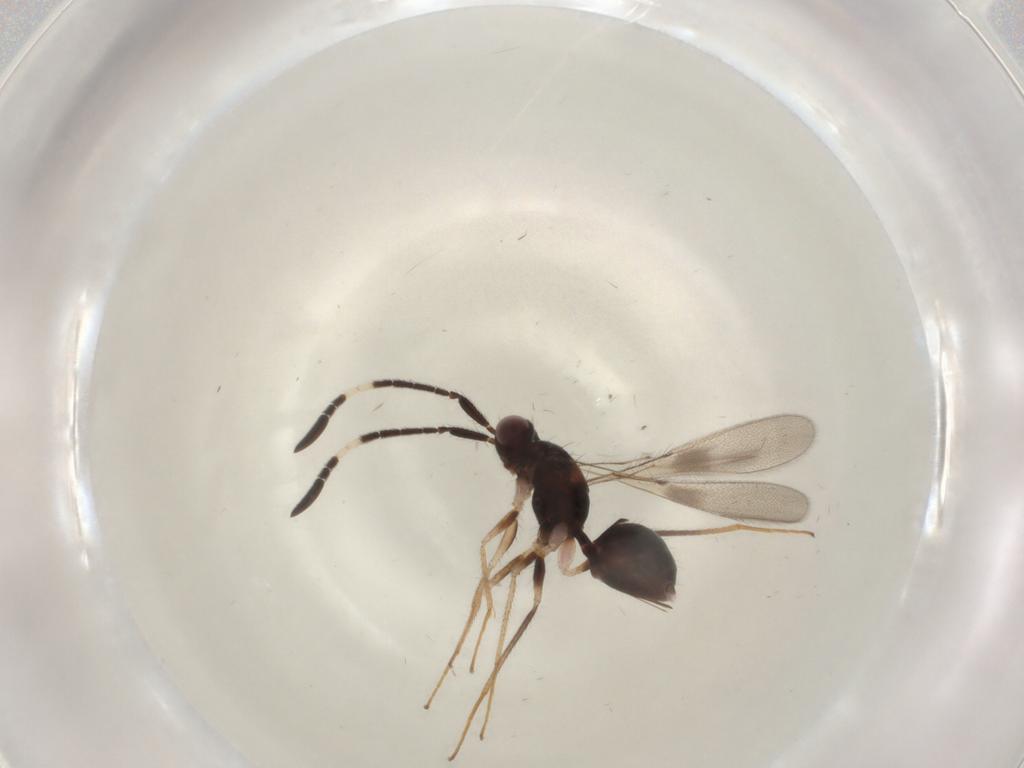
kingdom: Animalia
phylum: Arthropoda
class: Insecta
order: Hymenoptera
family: Mymaridae
